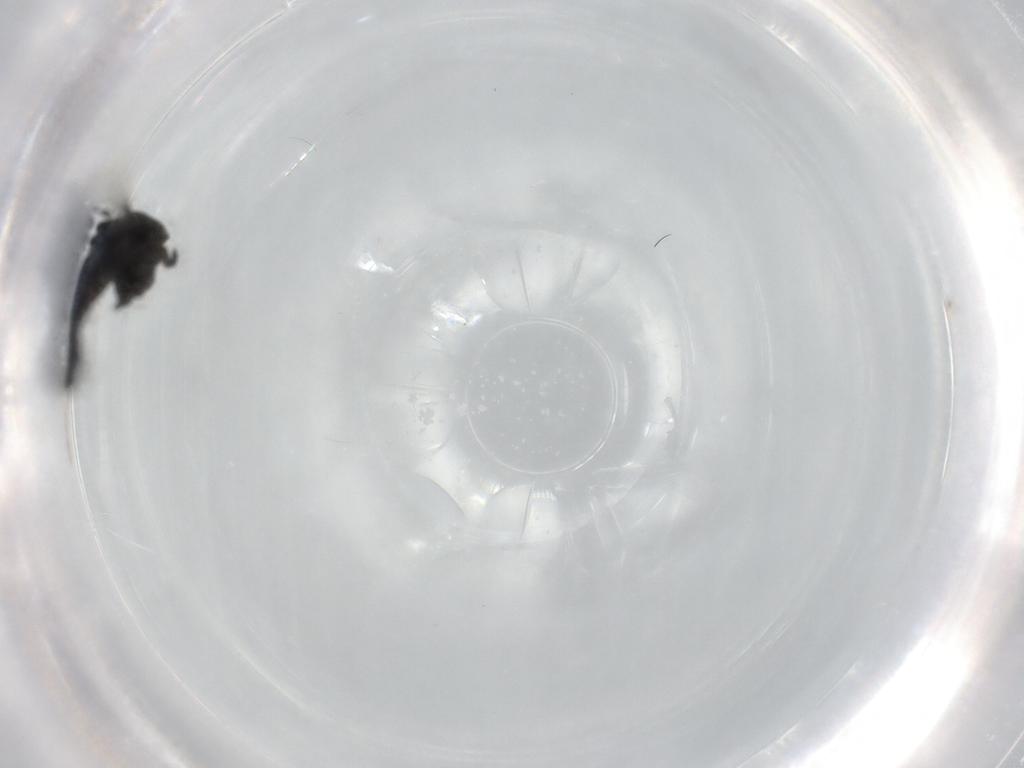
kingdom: Animalia
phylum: Arthropoda
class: Insecta
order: Diptera
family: Chironomidae
